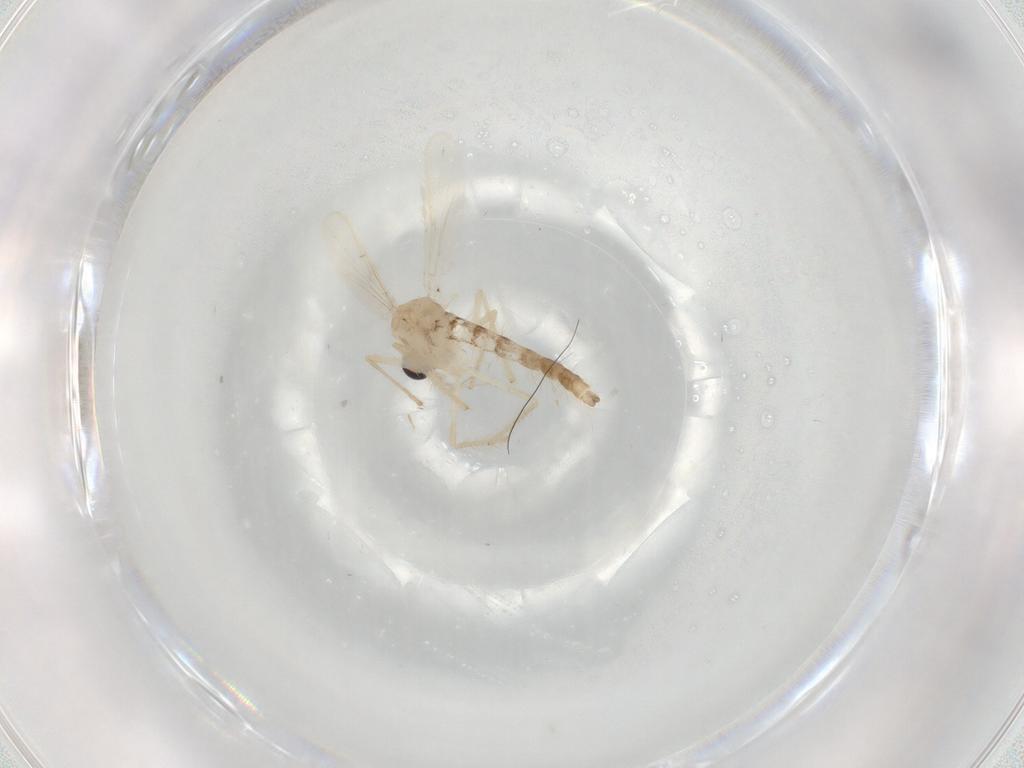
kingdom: Animalia
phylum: Arthropoda
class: Insecta
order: Diptera
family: Chironomidae
